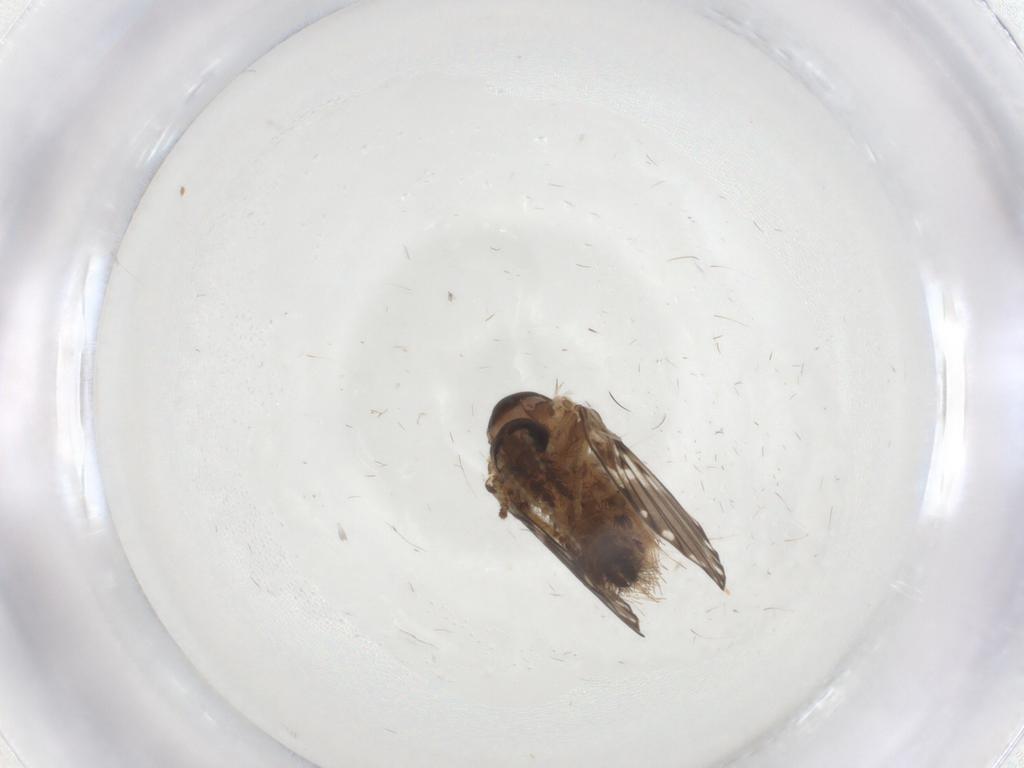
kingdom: Animalia
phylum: Arthropoda
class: Insecta
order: Diptera
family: Psychodidae
